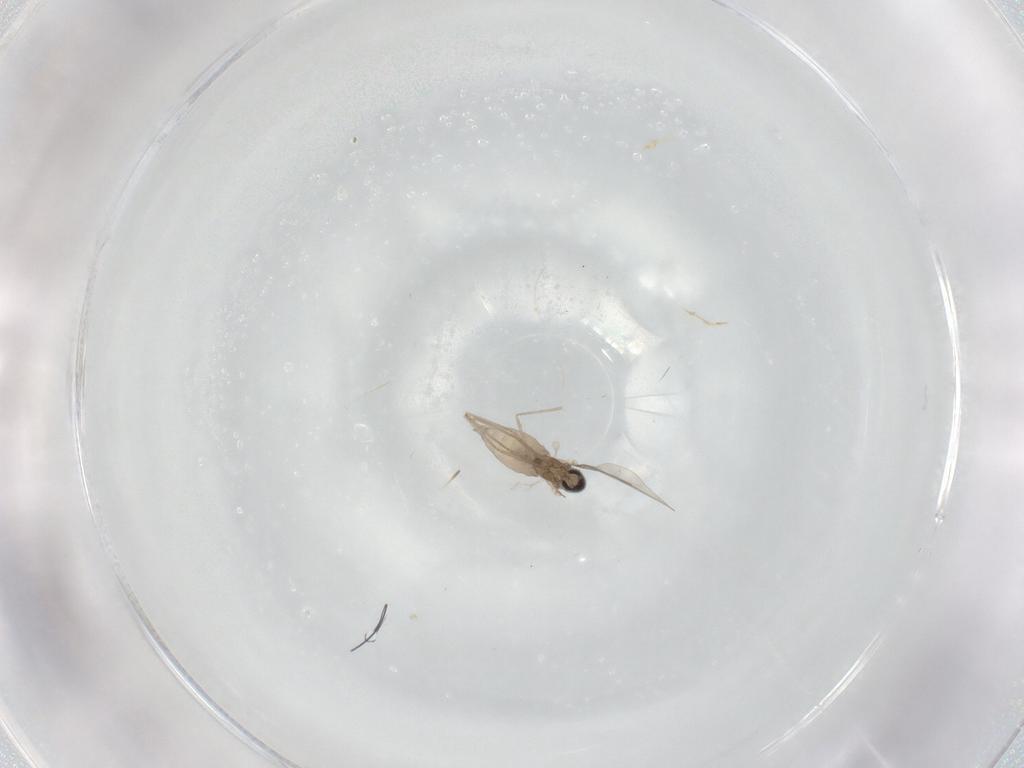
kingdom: Animalia
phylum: Arthropoda
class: Insecta
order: Diptera
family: Cecidomyiidae
